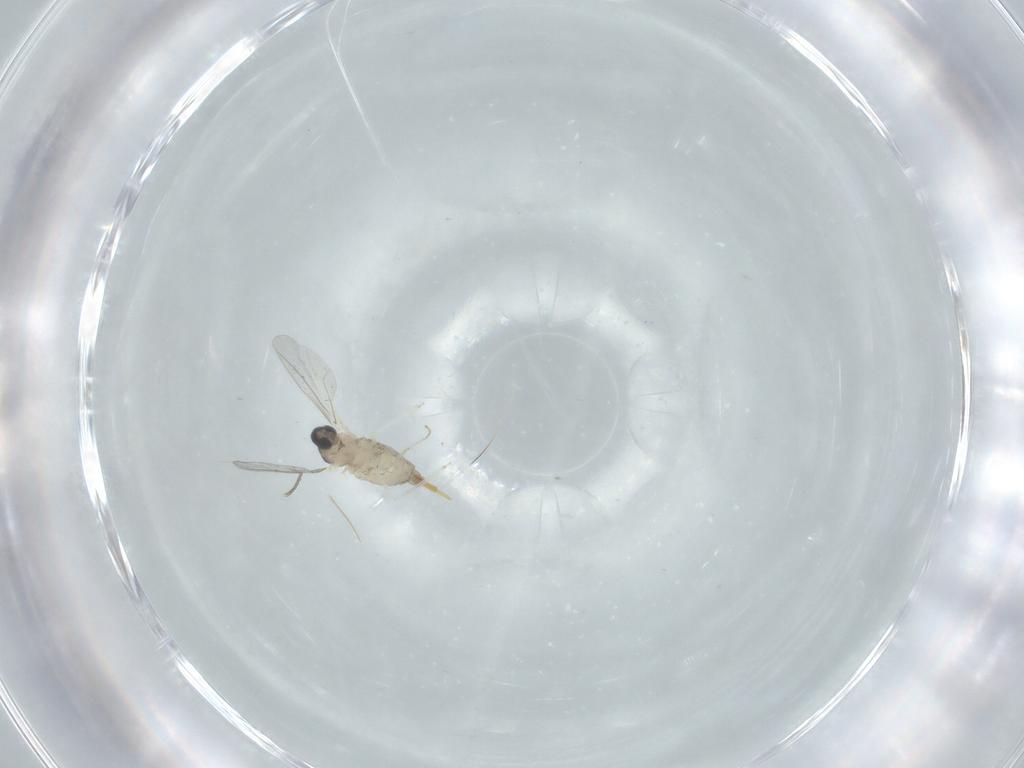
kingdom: Animalia
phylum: Arthropoda
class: Insecta
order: Diptera
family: Cecidomyiidae
